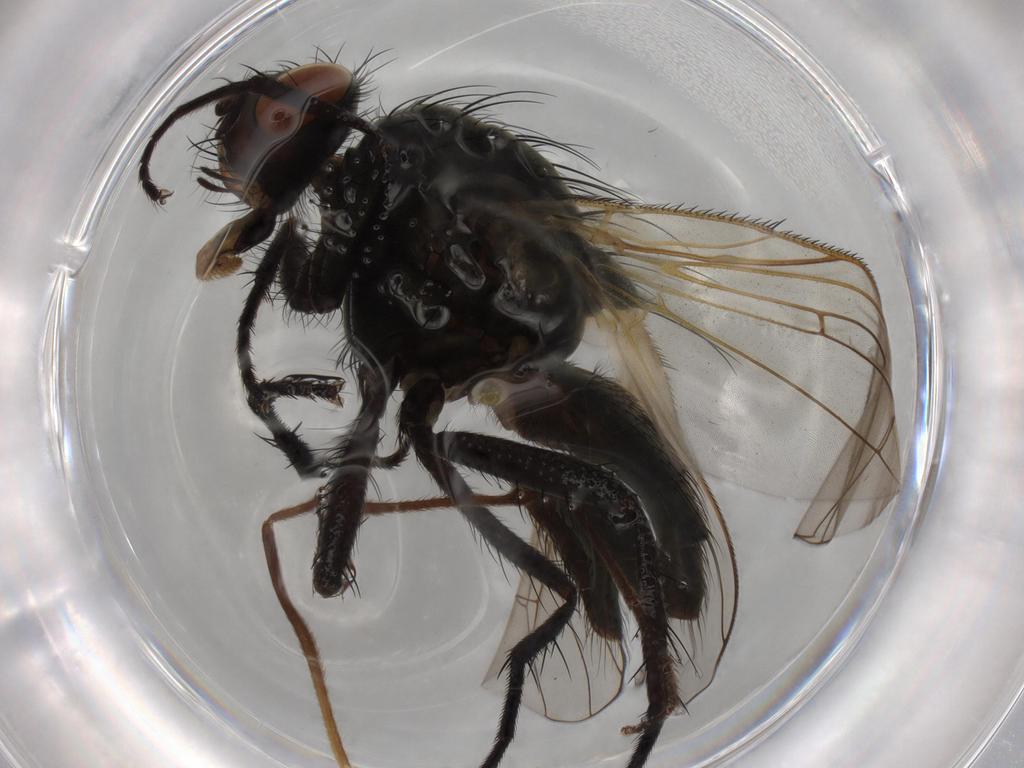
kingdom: Animalia
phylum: Arthropoda
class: Insecta
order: Diptera
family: Anthomyiidae
